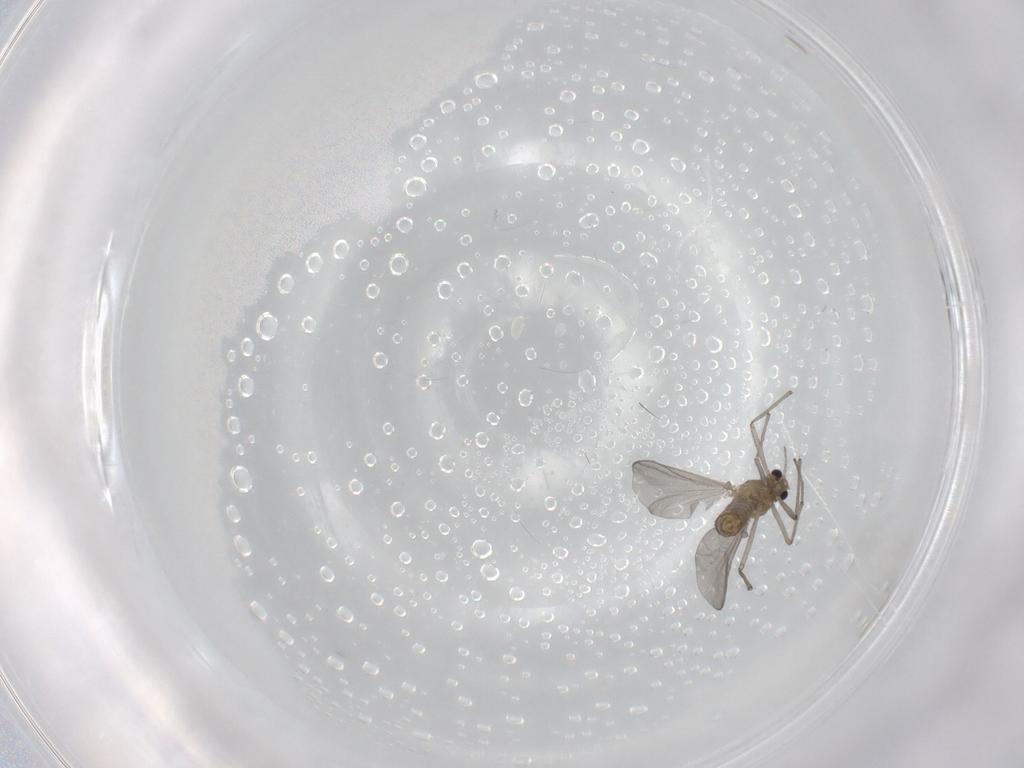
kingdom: Animalia
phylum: Arthropoda
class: Insecta
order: Diptera
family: Chironomidae
